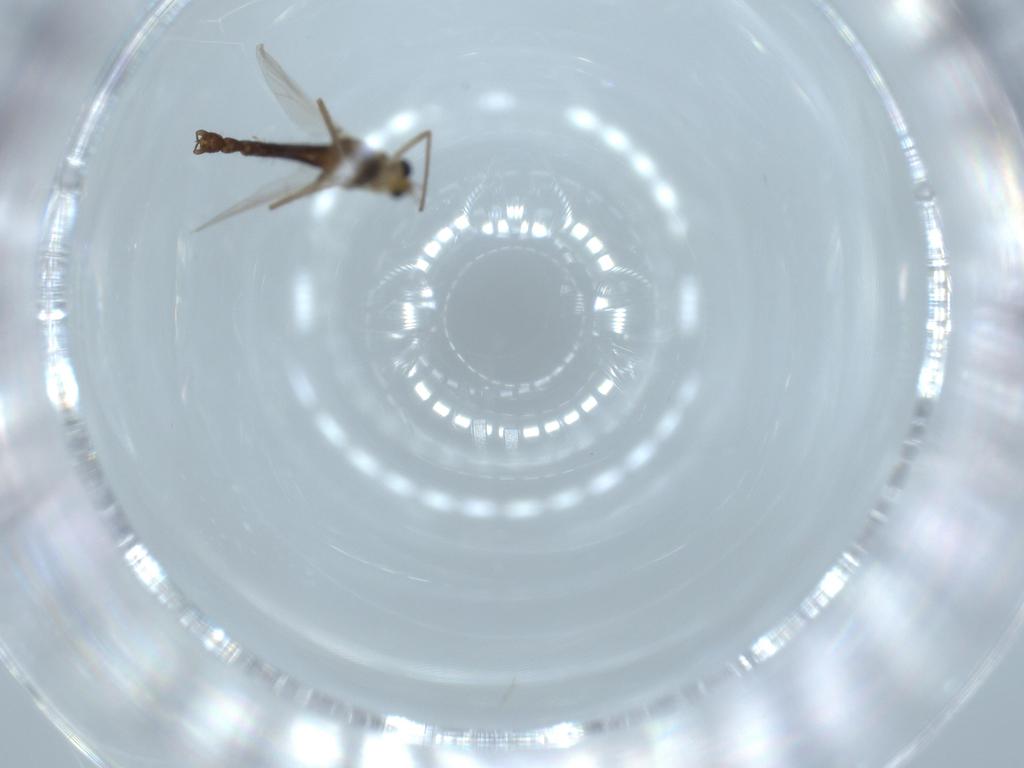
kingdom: Animalia
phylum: Arthropoda
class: Insecta
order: Diptera
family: Chironomidae
